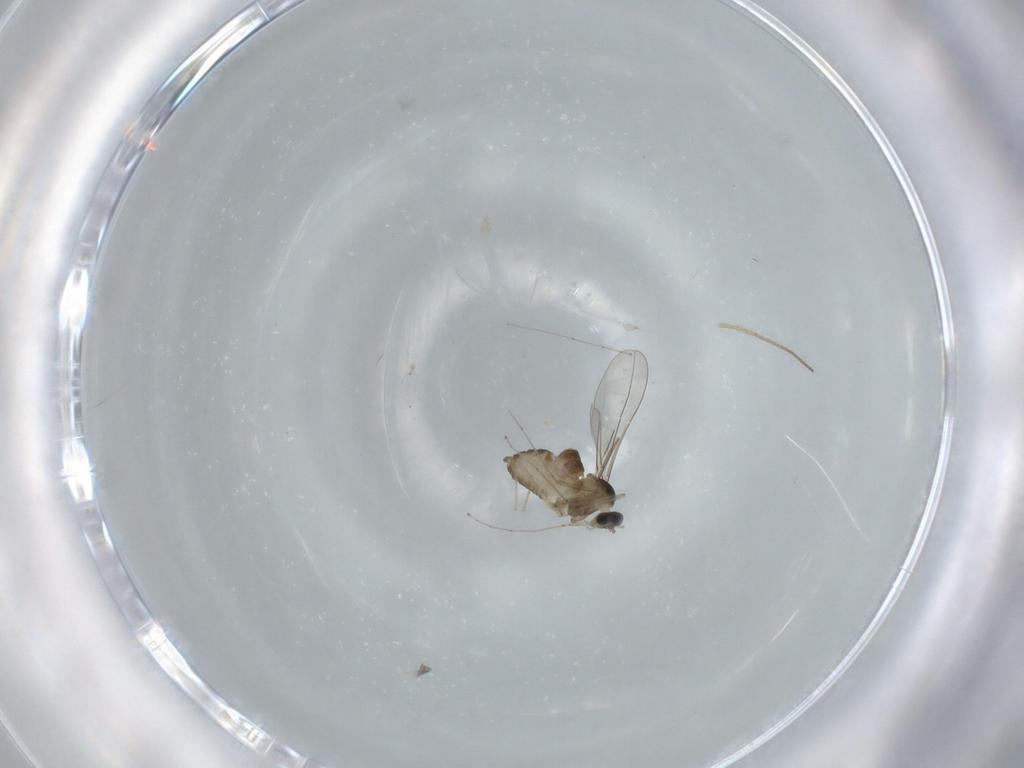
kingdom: Animalia
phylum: Arthropoda
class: Insecta
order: Diptera
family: Cecidomyiidae
